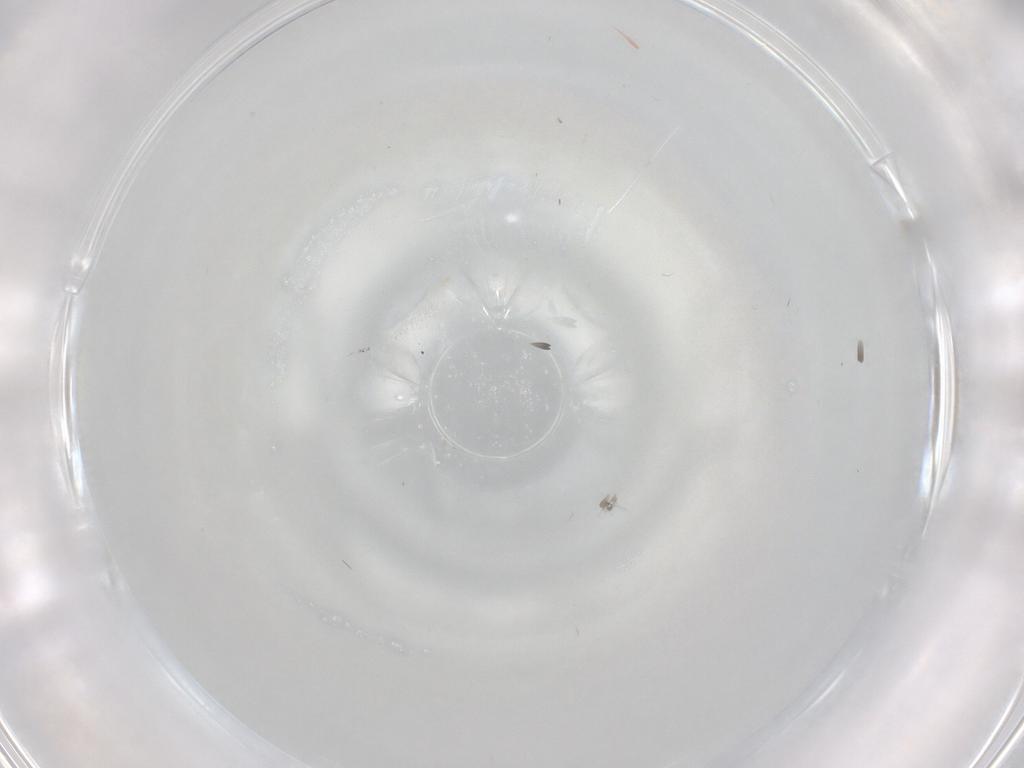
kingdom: Animalia
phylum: Arthropoda
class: Insecta
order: Diptera
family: Cecidomyiidae
